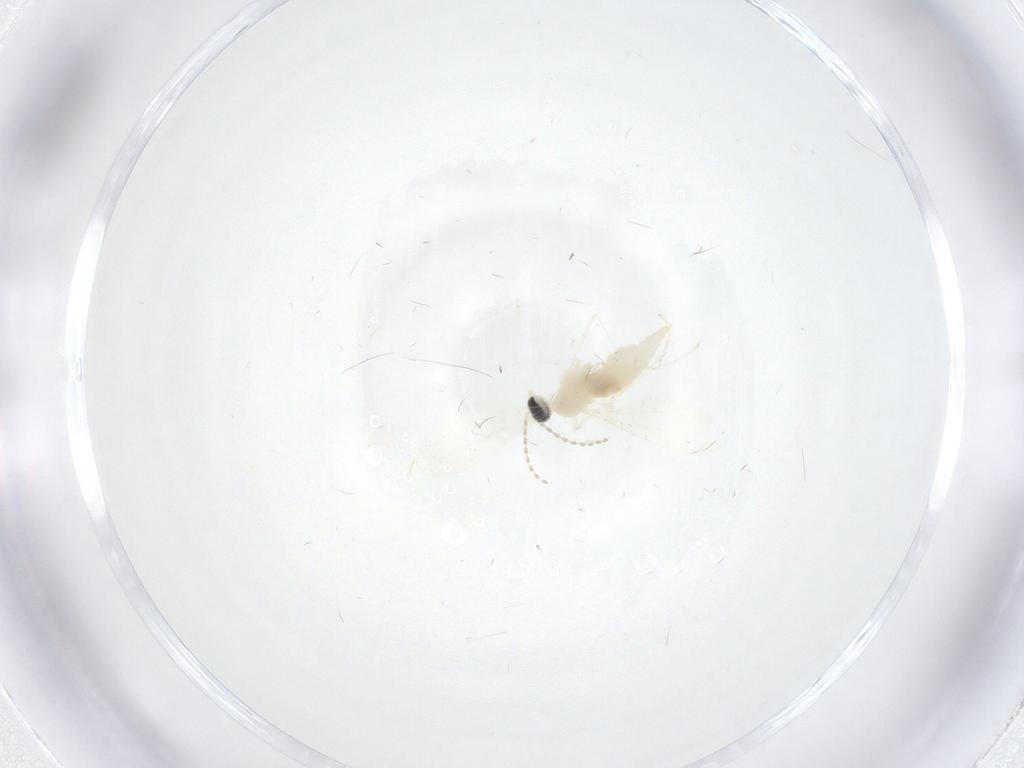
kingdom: Animalia
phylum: Arthropoda
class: Insecta
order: Diptera
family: Cecidomyiidae
